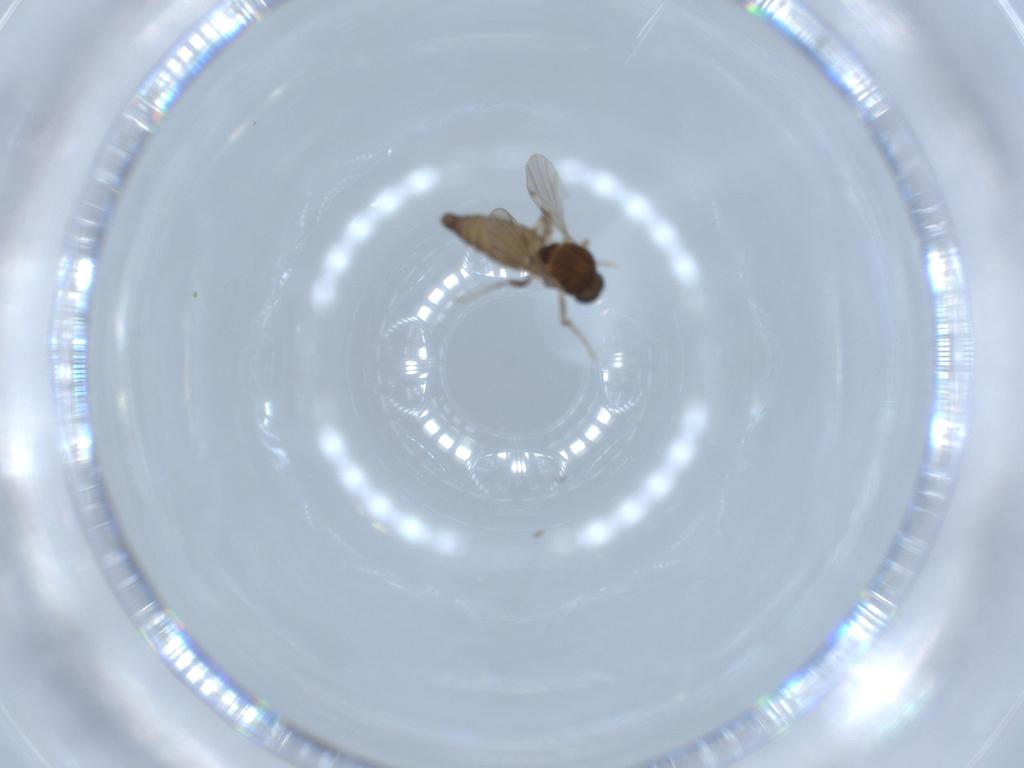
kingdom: Animalia
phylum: Arthropoda
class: Insecta
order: Diptera
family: Ceratopogonidae
